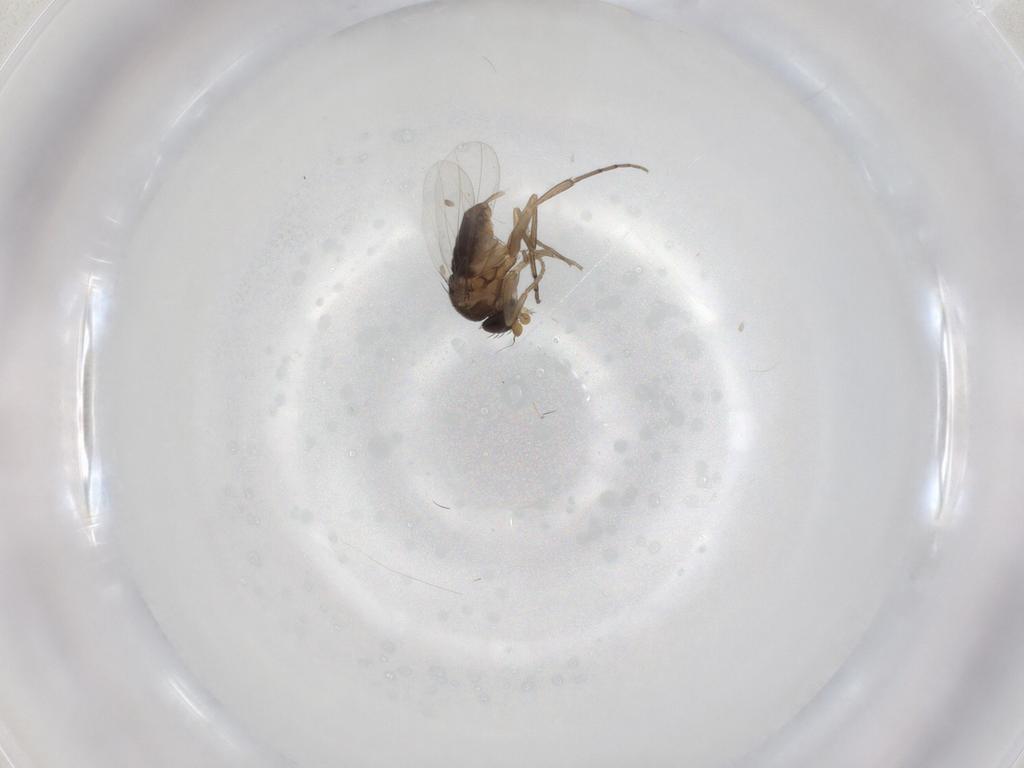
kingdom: Animalia
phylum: Arthropoda
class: Insecta
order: Diptera
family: Phoridae
